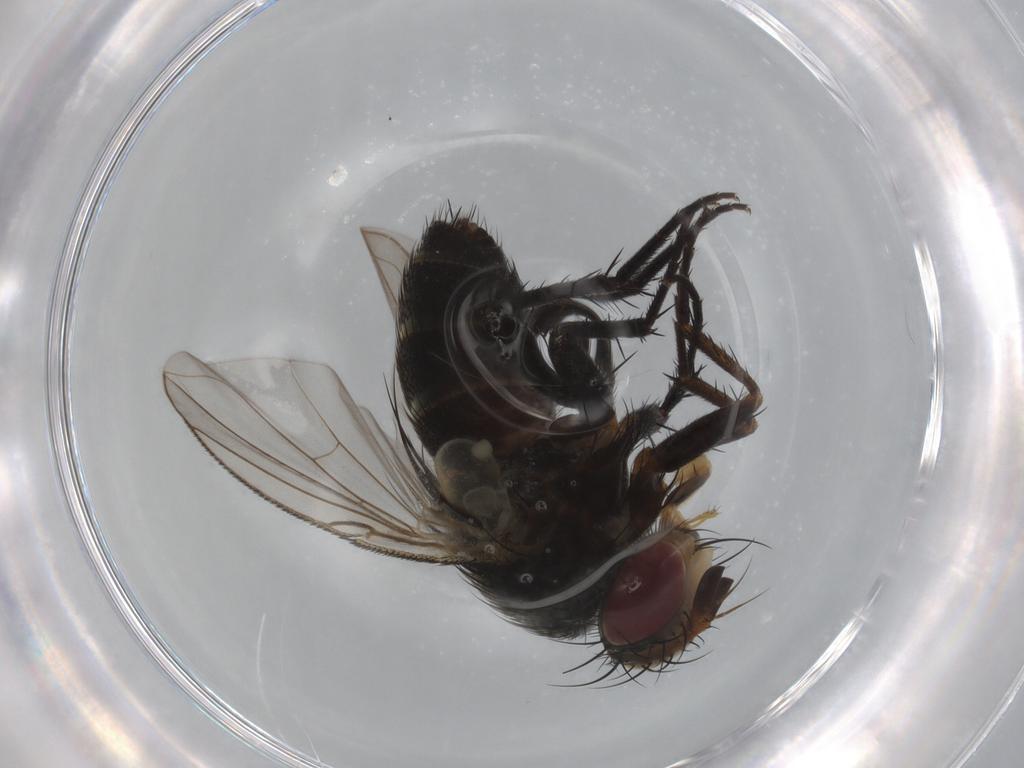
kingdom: Animalia
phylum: Arthropoda
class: Insecta
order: Diptera
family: Tachinidae
